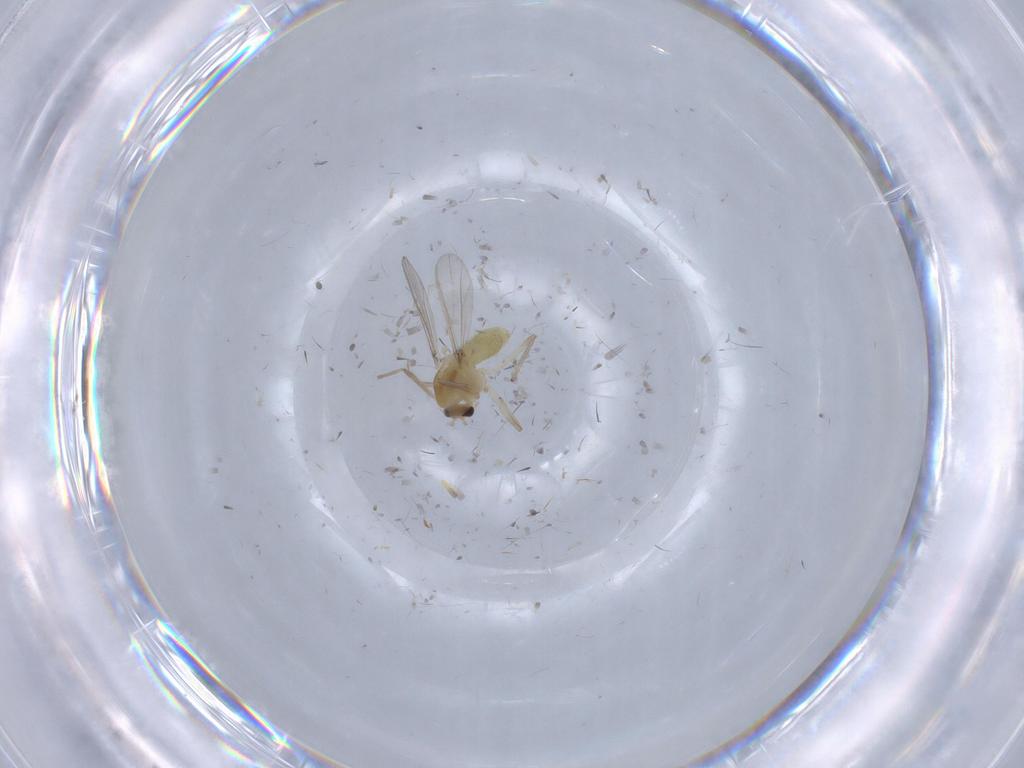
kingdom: Animalia
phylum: Arthropoda
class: Insecta
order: Diptera
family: Chironomidae
